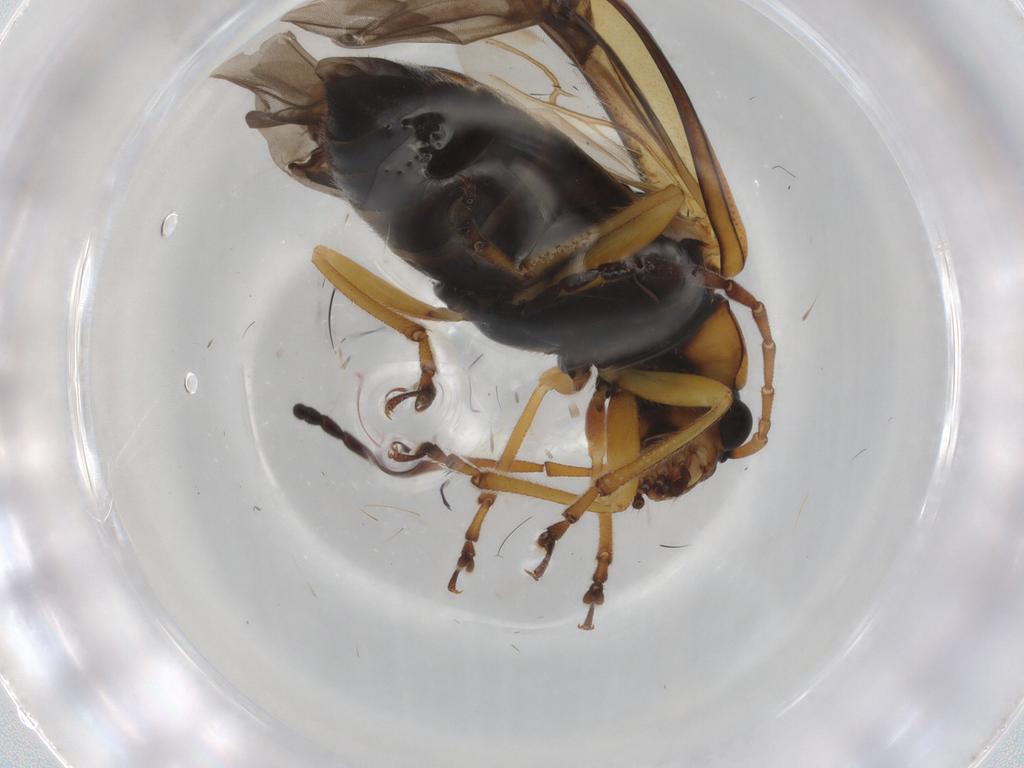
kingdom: Animalia
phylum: Arthropoda
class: Insecta
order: Coleoptera
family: Chrysomelidae
